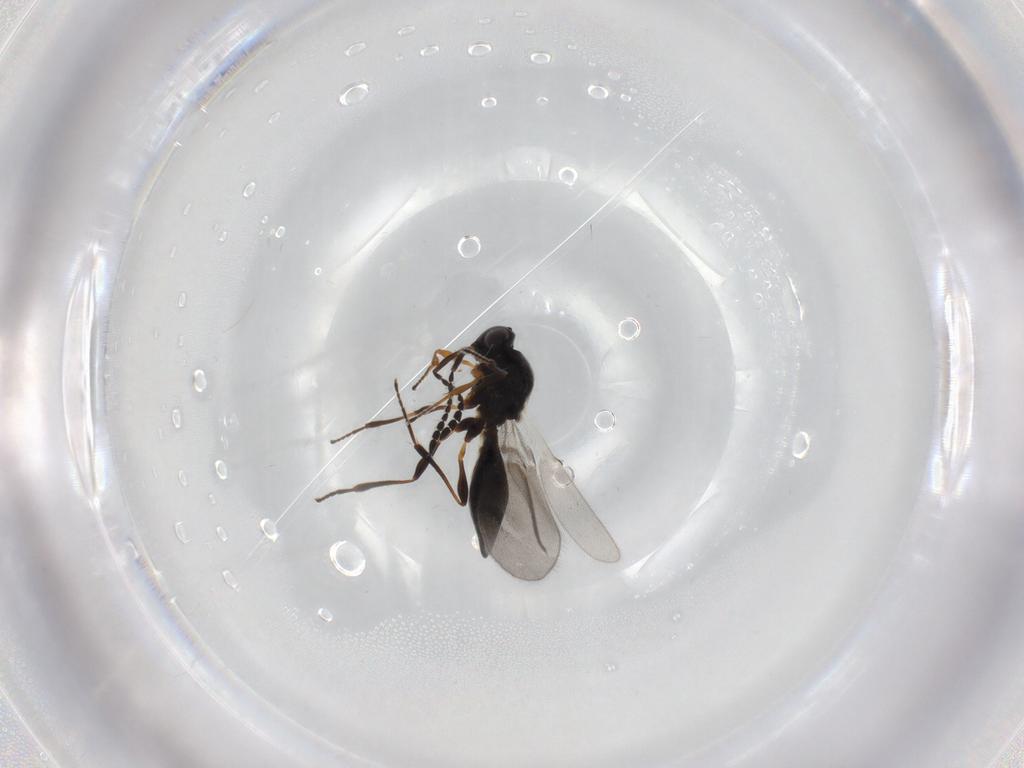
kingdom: Animalia
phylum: Arthropoda
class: Insecta
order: Hymenoptera
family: Platygastridae
